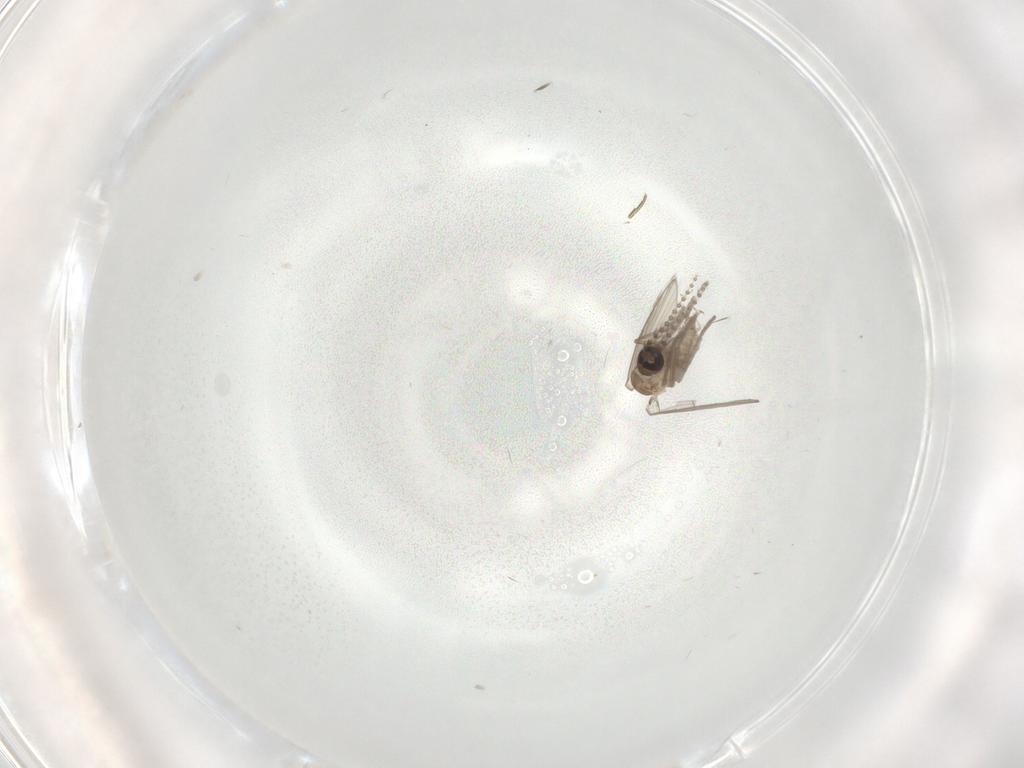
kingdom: Animalia
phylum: Arthropoda
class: Insecta
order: Diptera
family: Psychodidae
